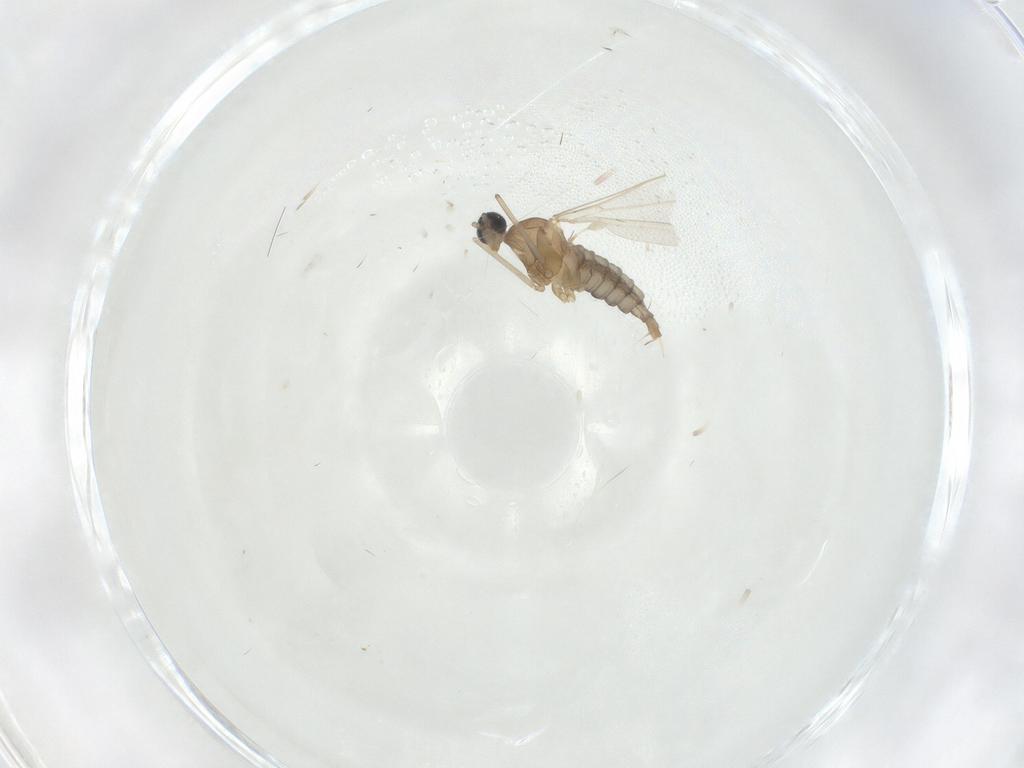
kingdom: Animalia
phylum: Arthropoda
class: Insecta
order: Diptera
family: Cecidomyiidae
